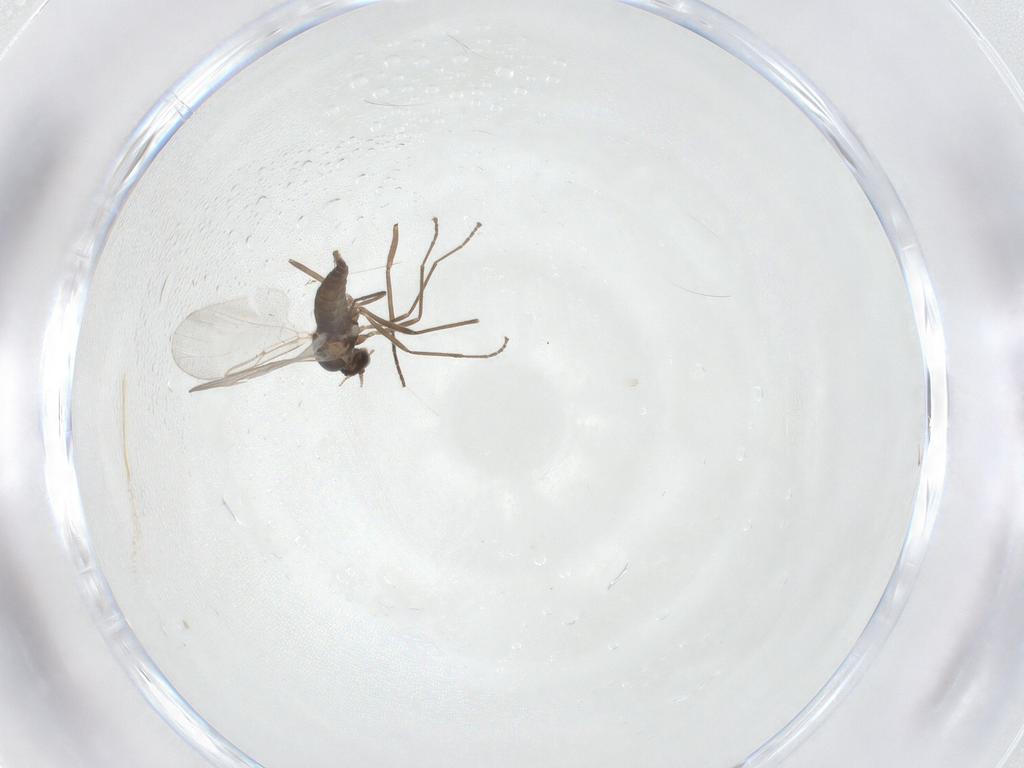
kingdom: Animalia
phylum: Arthropoda
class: Insecta
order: Diptera
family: Cecidomyiidae
